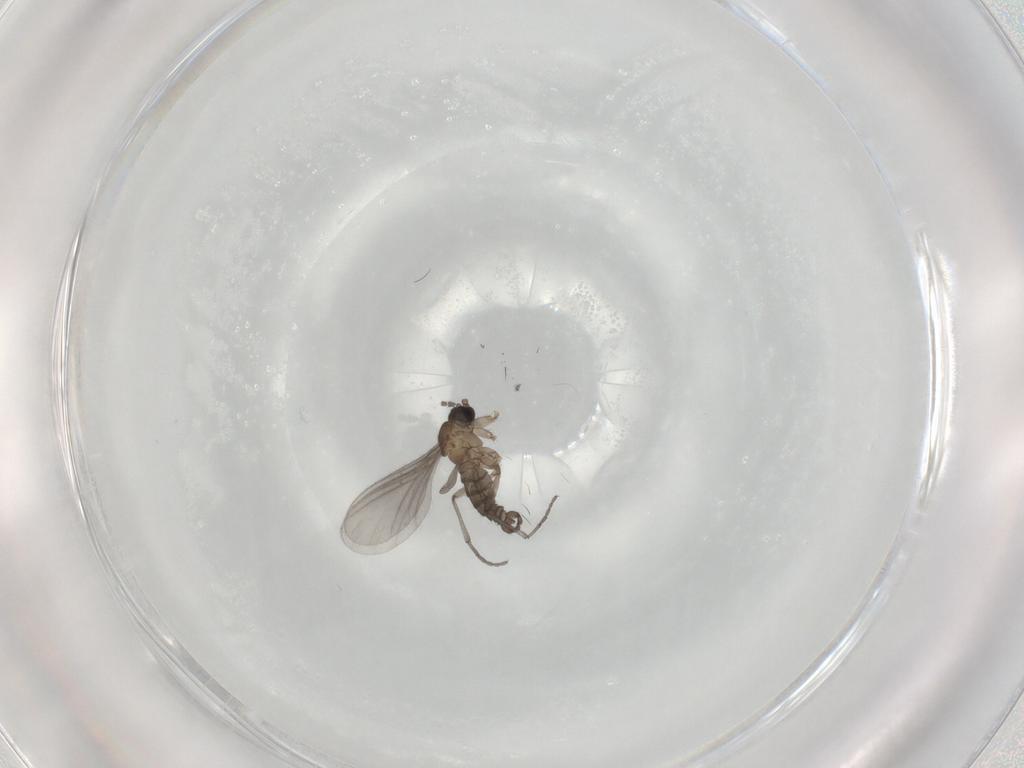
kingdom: Animalia
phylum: Arthropoda
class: Insecta
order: Diptera
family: Sciaridae
